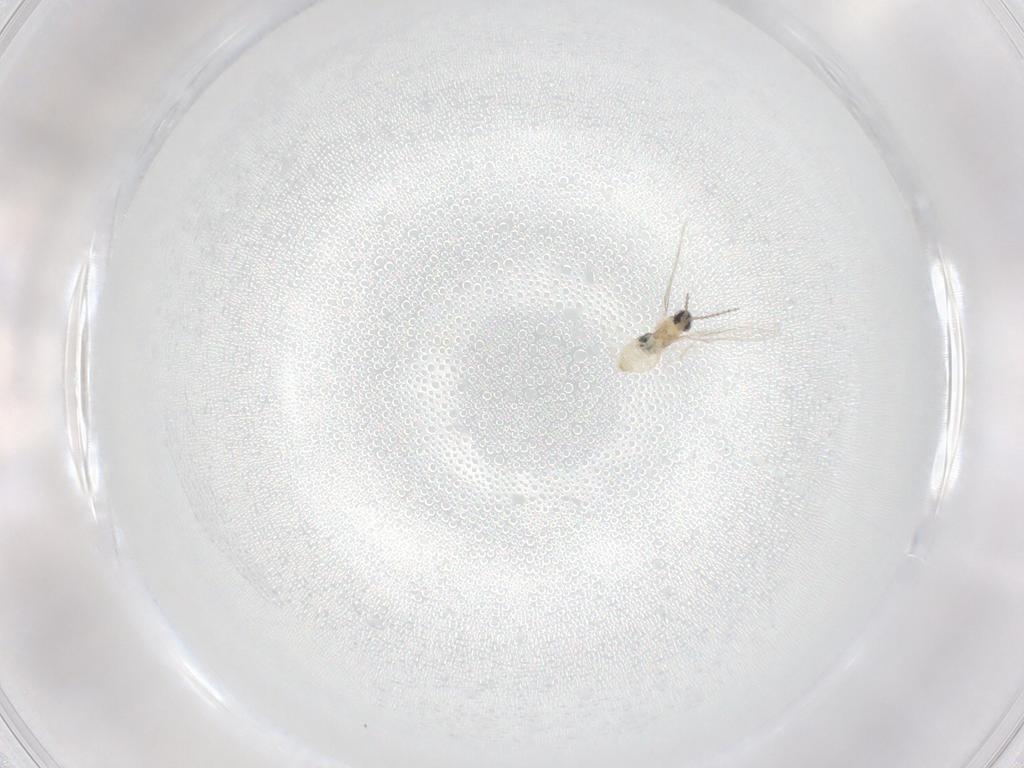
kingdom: Animalia
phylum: Arthropoda
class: Insecta
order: Diptera
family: Cecidomyiidae
